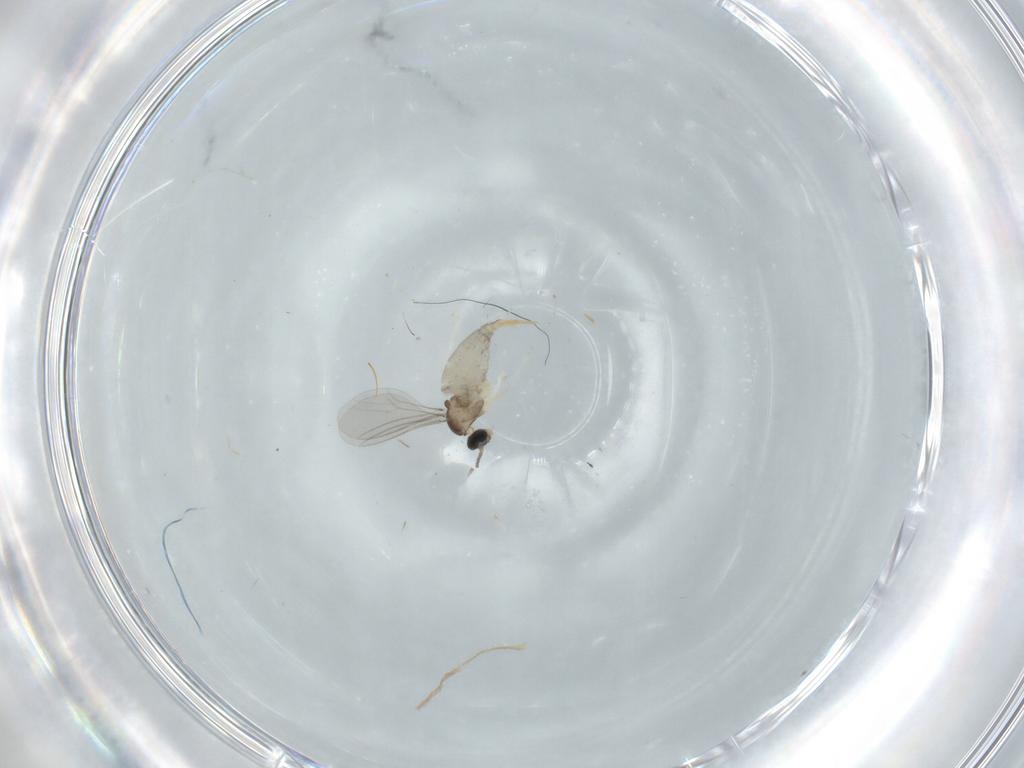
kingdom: Animalia
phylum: Arthropoda
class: Insecta
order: Diptera
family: Cecidomyiidae
